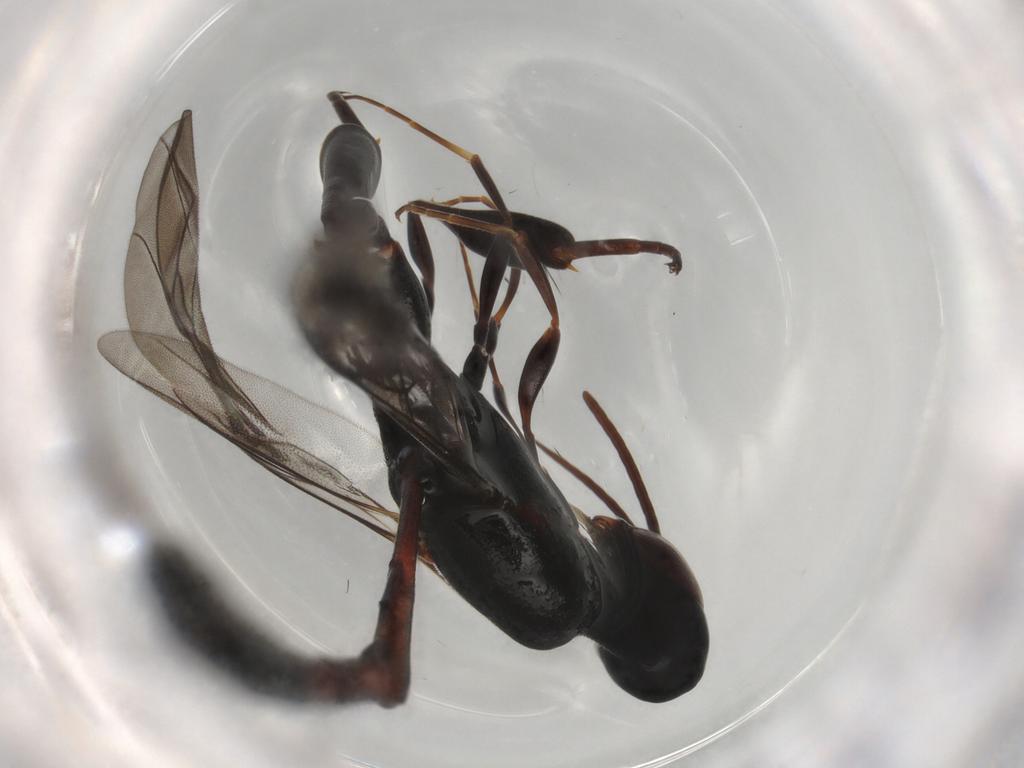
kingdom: Animalia
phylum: Arthropoda
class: Insecta
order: Hymenoptera
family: Gasteruptiidae
